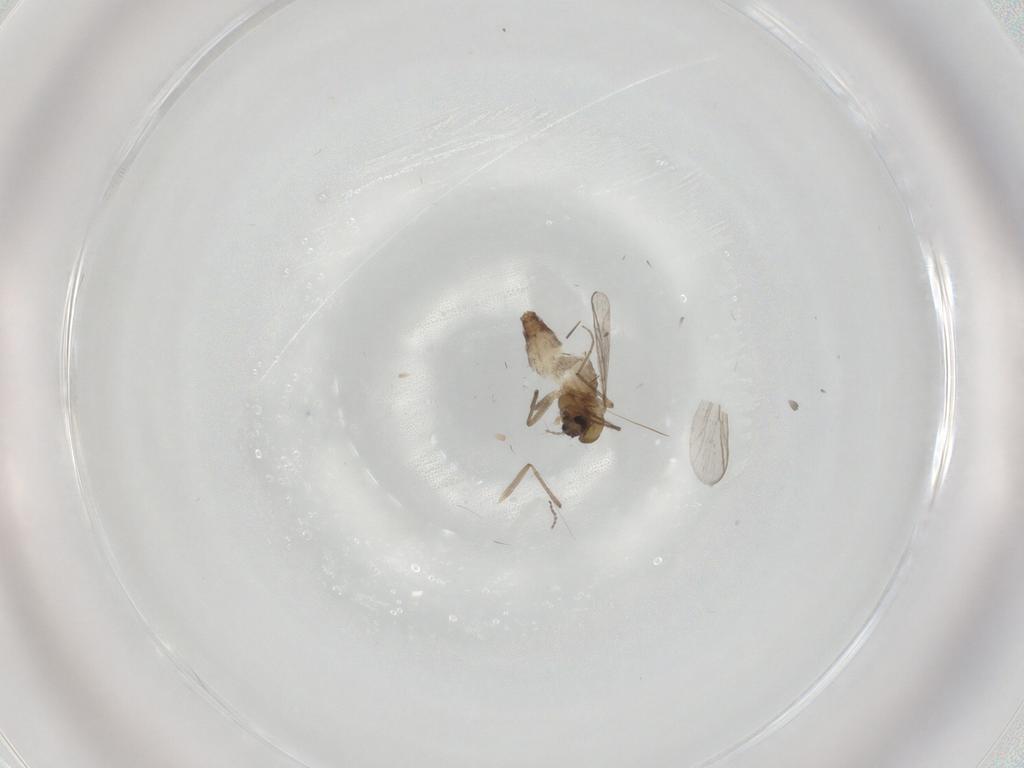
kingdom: Animalia
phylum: Arthropoda
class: Insecta
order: Diptera
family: Chironomidae
